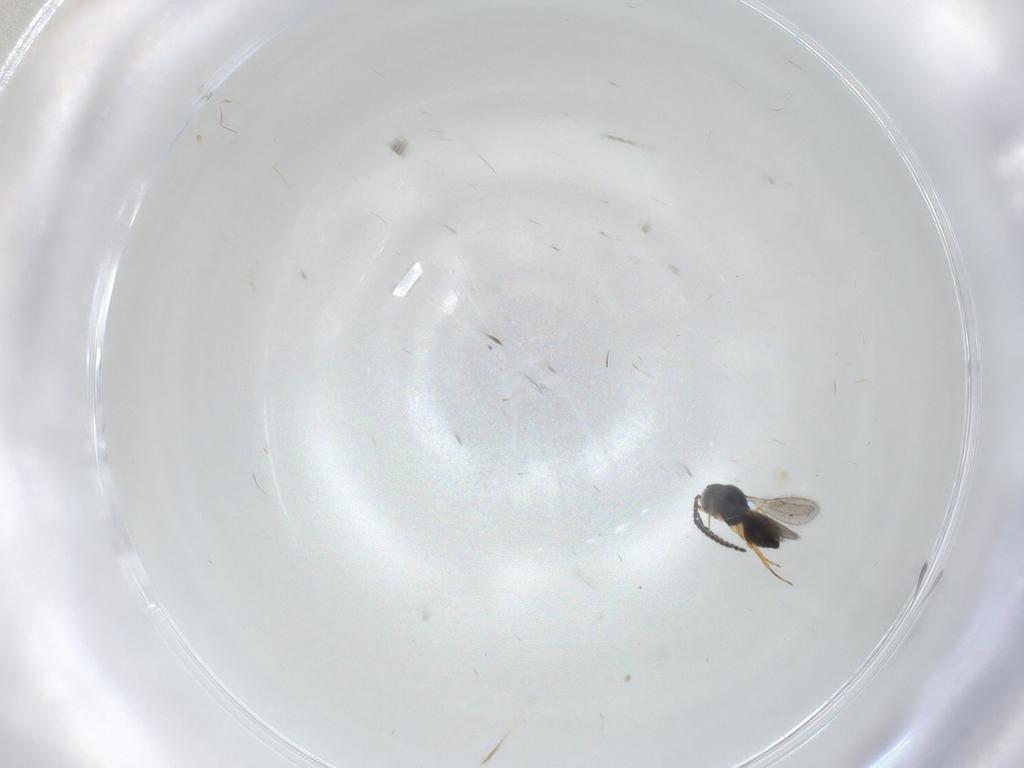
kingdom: Animalia
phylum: Arthropoda
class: Insecta
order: Hymenoptera
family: Scelionidae
